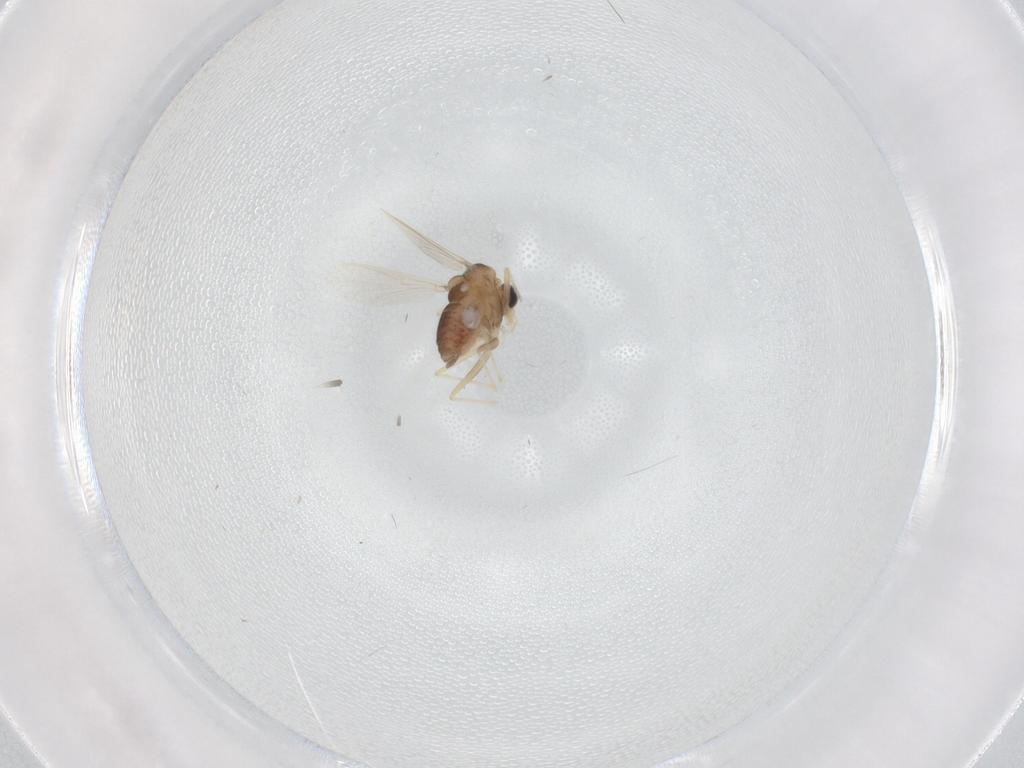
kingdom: Animalia
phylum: Arthropoda
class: Insecta
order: Diptera
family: Chironomidae
